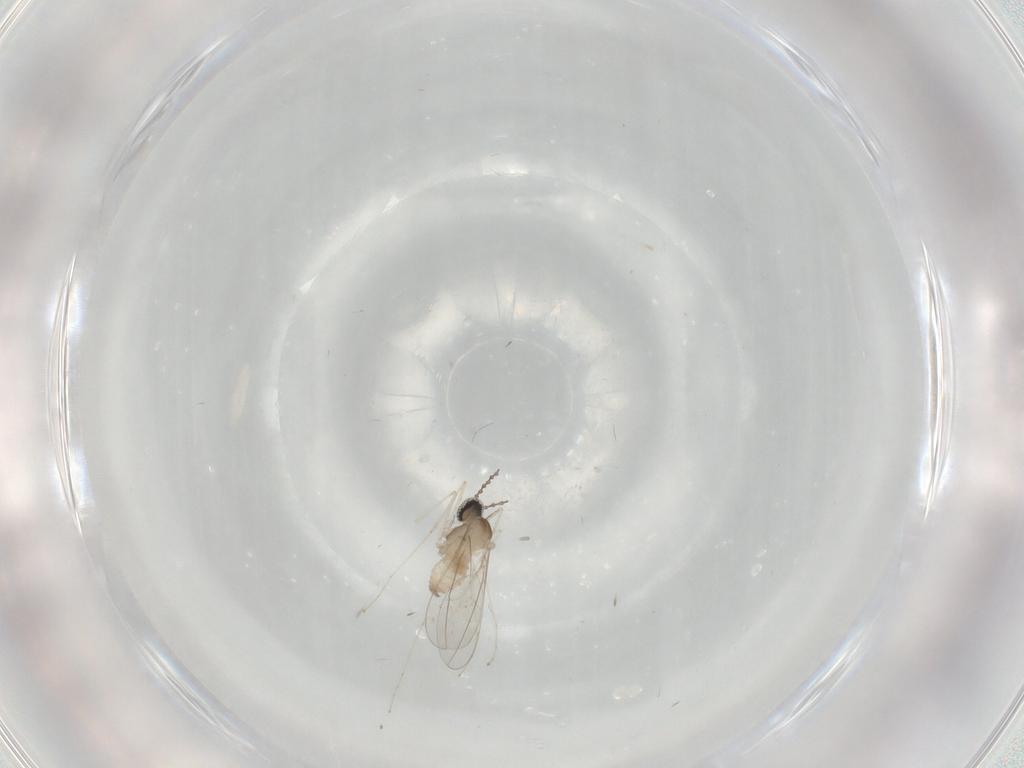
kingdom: Animalia
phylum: Arthropoda
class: Insecta
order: Diptera
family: Cecidomyiidae
